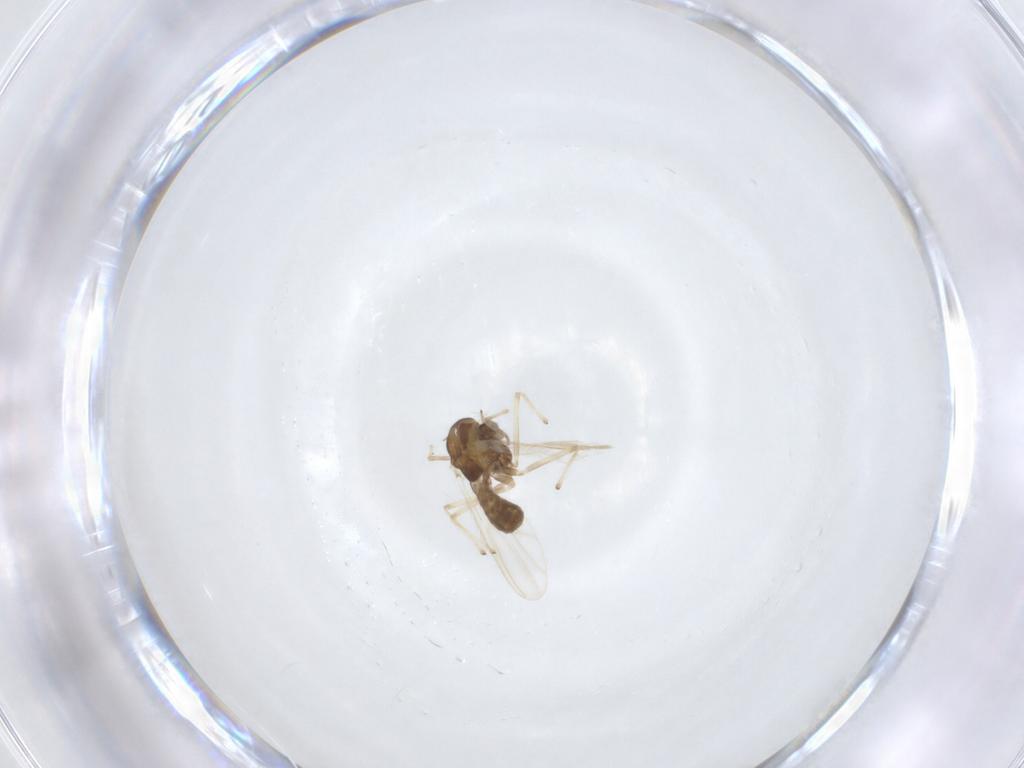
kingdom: Animalia
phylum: Arthropoda
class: Insecta
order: Diptera
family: Chironomidae
